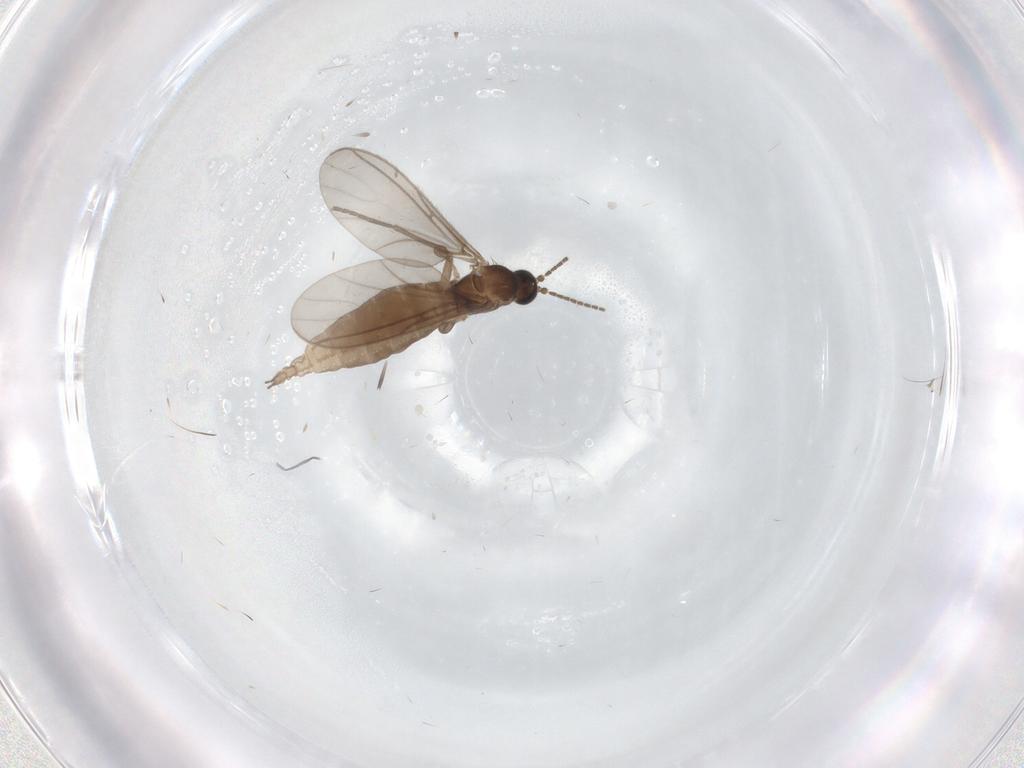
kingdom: Animalia
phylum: Arthropoda
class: Insecta
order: Diptera
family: Sciaridae
